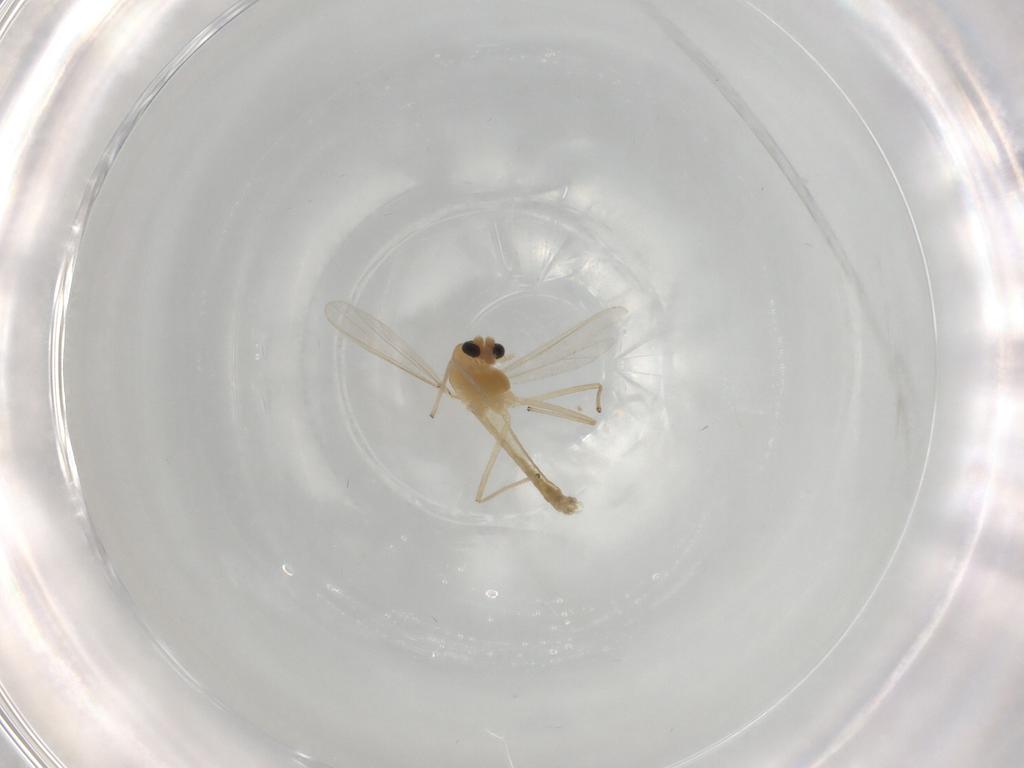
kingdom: Animalia
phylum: Arthropoda
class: Insecta
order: Diptera
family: Chironomidae
